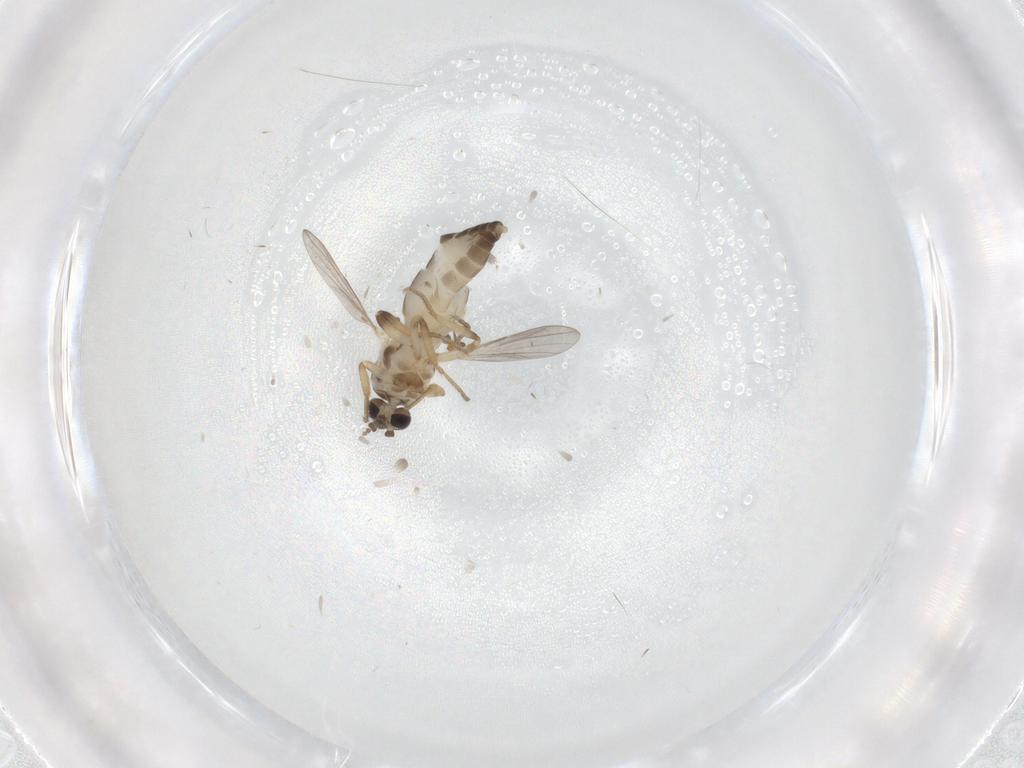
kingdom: Animalia
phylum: Arthropoda
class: Insecta
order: Diptera
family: Ceratopogonidae
